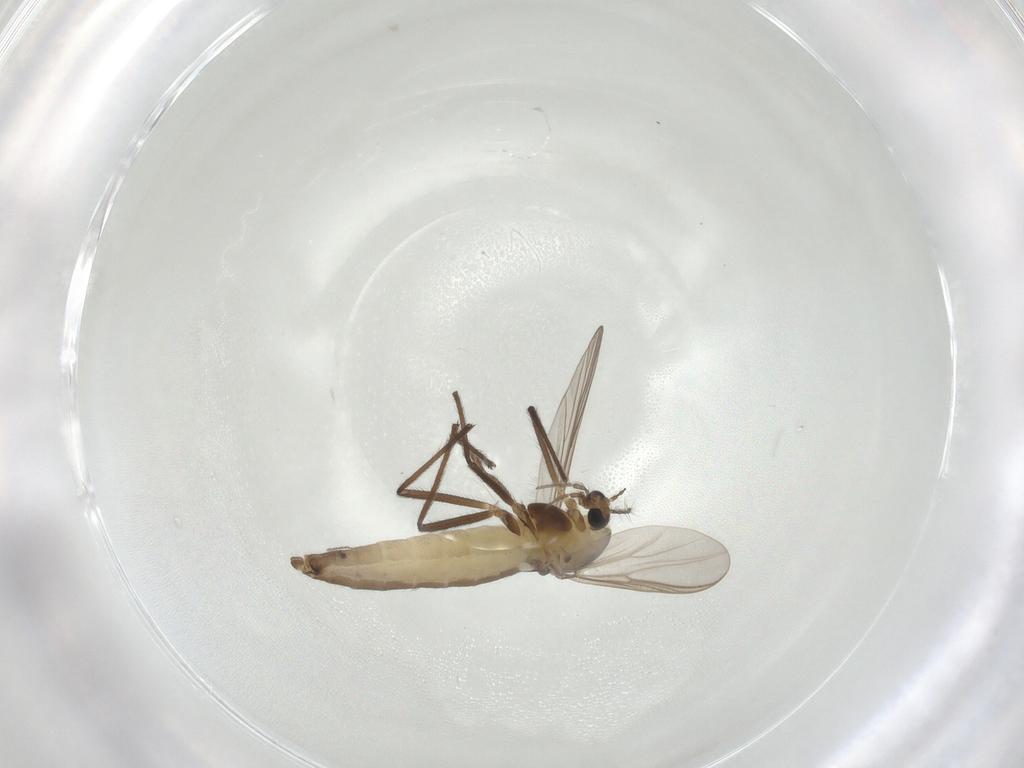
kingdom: Animalia
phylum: Arthropoda
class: Insecta
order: Diptera
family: Chironomidae
